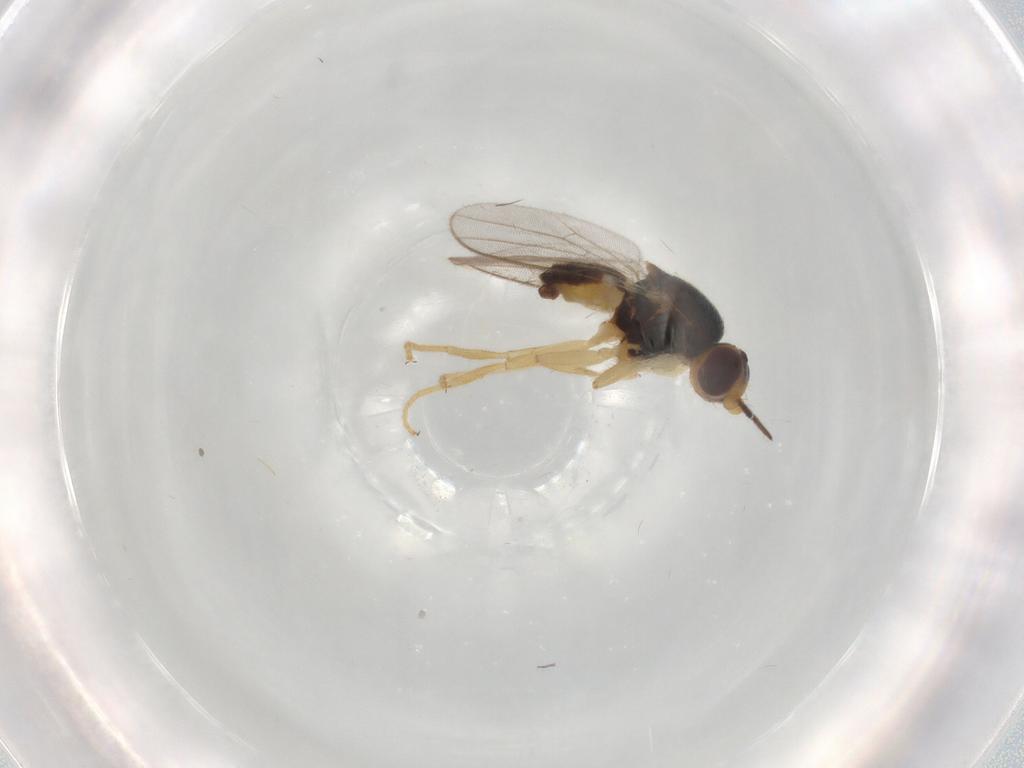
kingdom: Animalia
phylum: Arthropoda
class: Insecta
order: Diptera
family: Chloropidae
